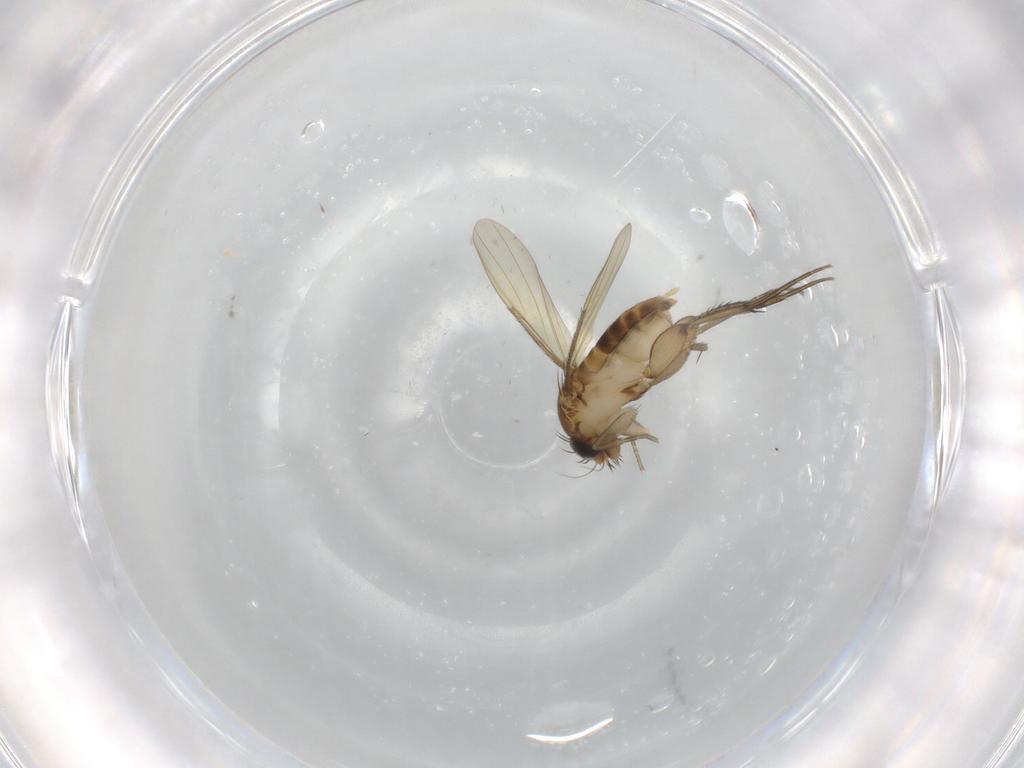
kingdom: Animalia
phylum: Arthropoda
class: Insecta
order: Diptera
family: Phoridae
